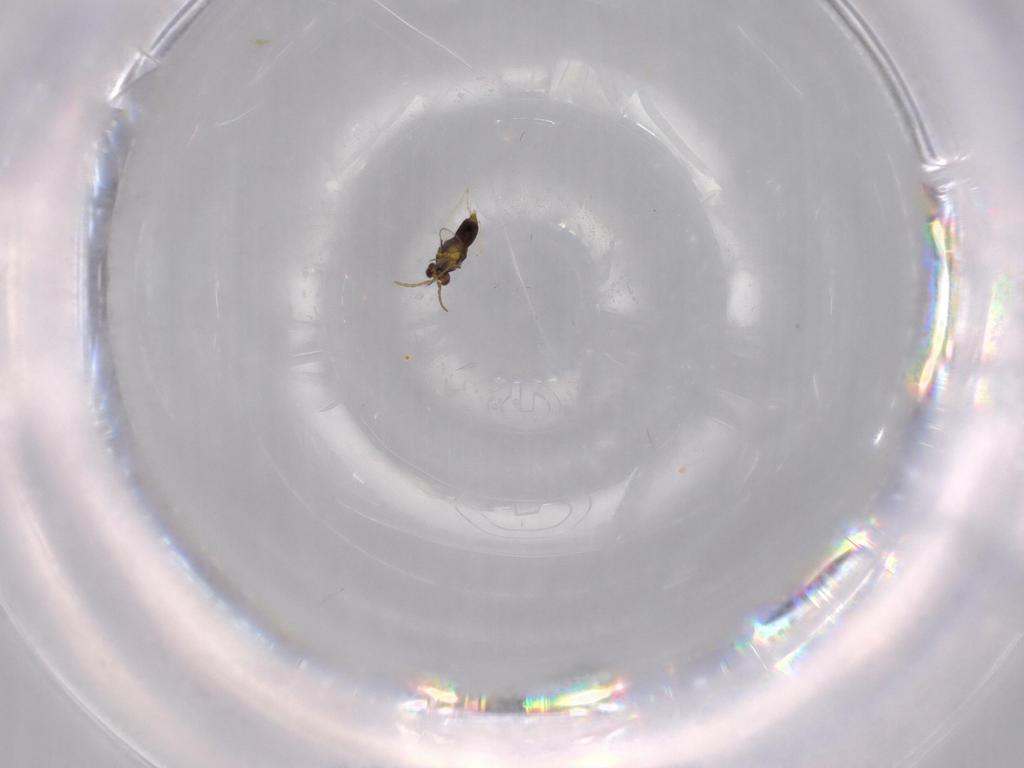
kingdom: Animalia
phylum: Arthropoda
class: Insecta
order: Hymenoptera
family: Aphelinidae
